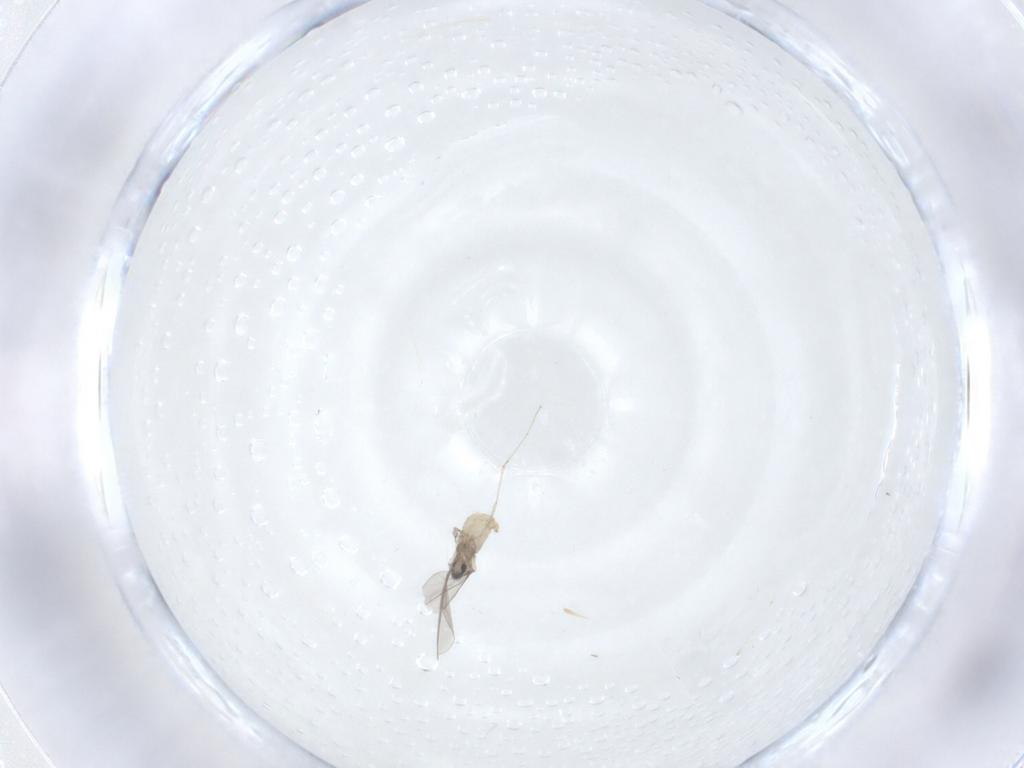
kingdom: Animalia
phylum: Arthropoda
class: Insecta
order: Diptera
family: Cecidomyiidae
